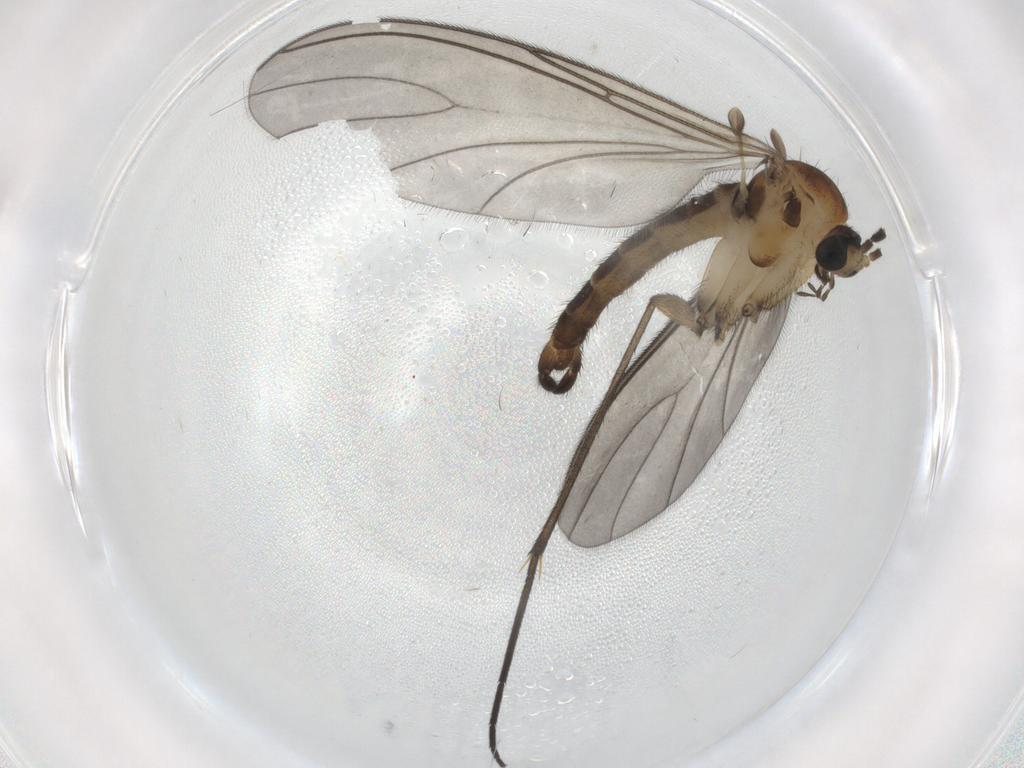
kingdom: Animalia
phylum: Arthropoda
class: Insecta
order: Diptera
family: Sciaridae
